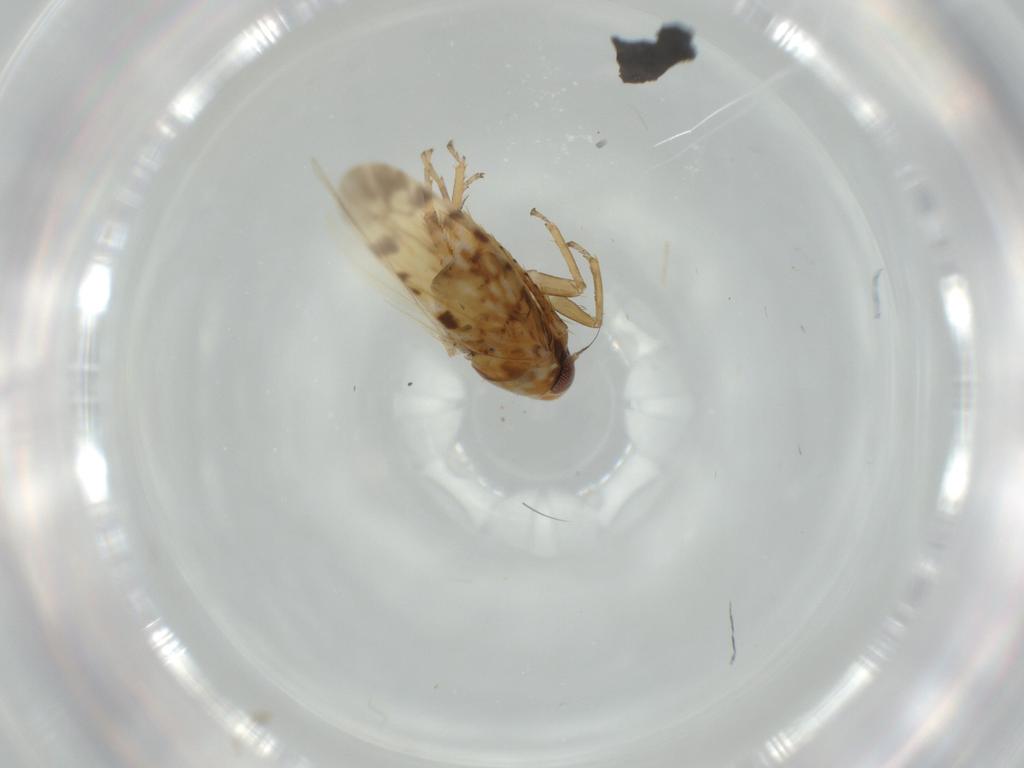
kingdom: Animalia
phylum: Arthropoda
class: Insecta
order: Hemiptera
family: Cicadellidae
